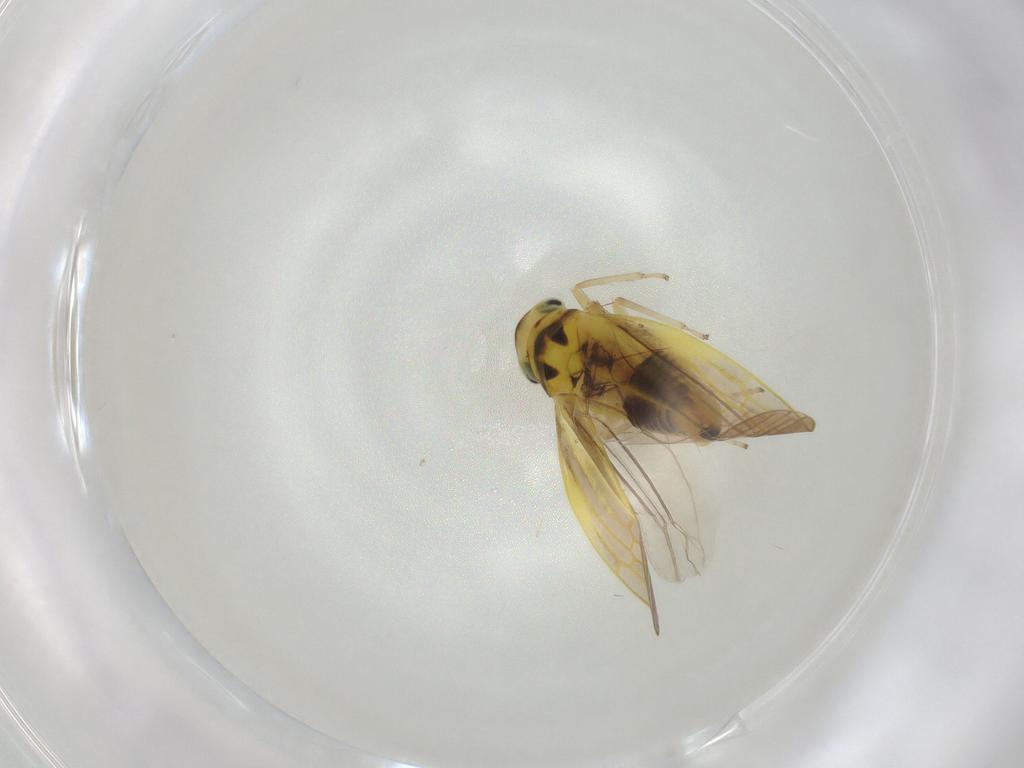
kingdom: Animalia
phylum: Arthropoda
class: Insecta
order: Hemiptera
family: Cicadellidae
